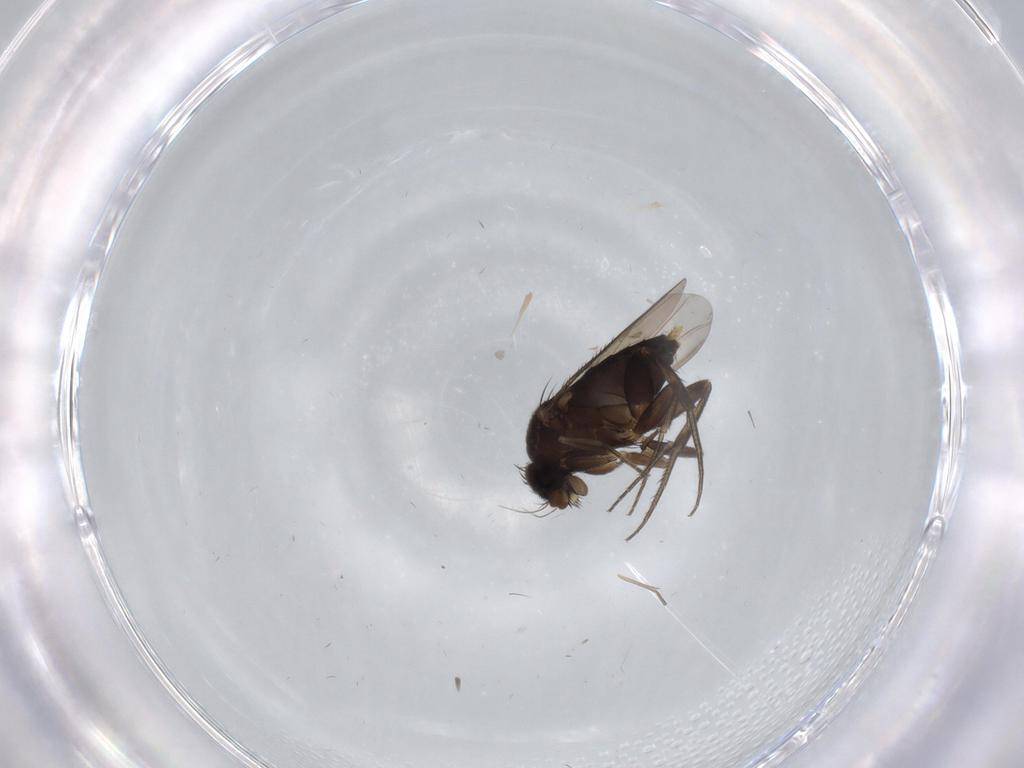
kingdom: Animalia
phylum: Arthropoda
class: Insecta
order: Diptera
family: Phoridae
